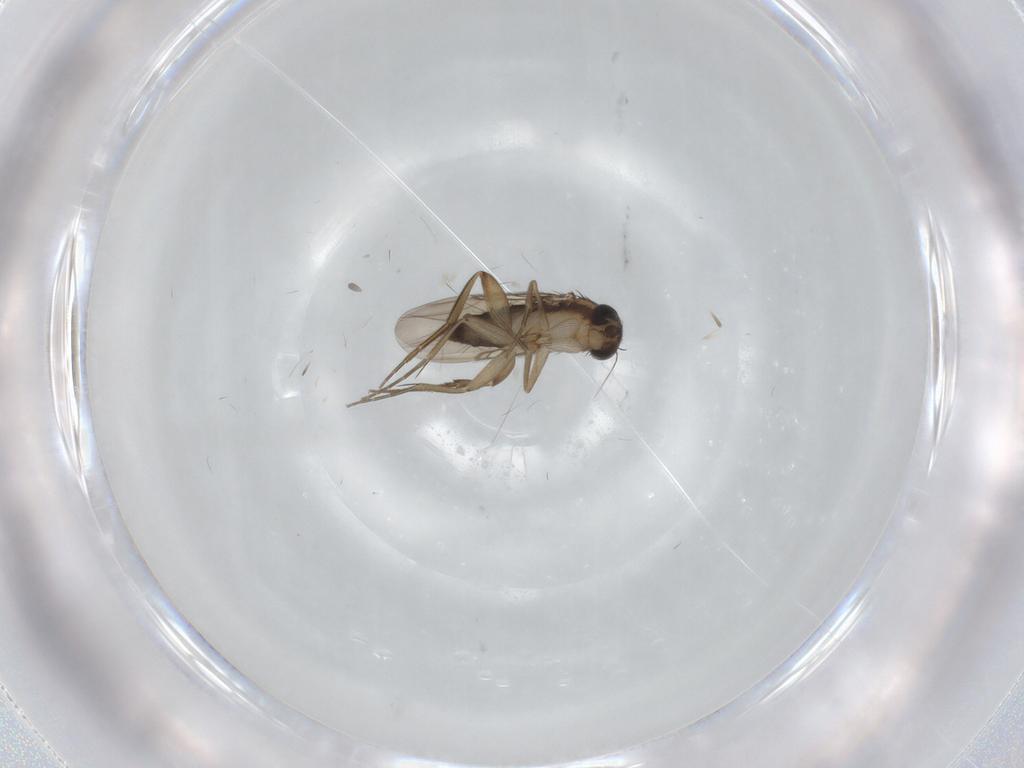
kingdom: Animalia
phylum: Arthropoda
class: Insecta
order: Diptera
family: Phoridae
